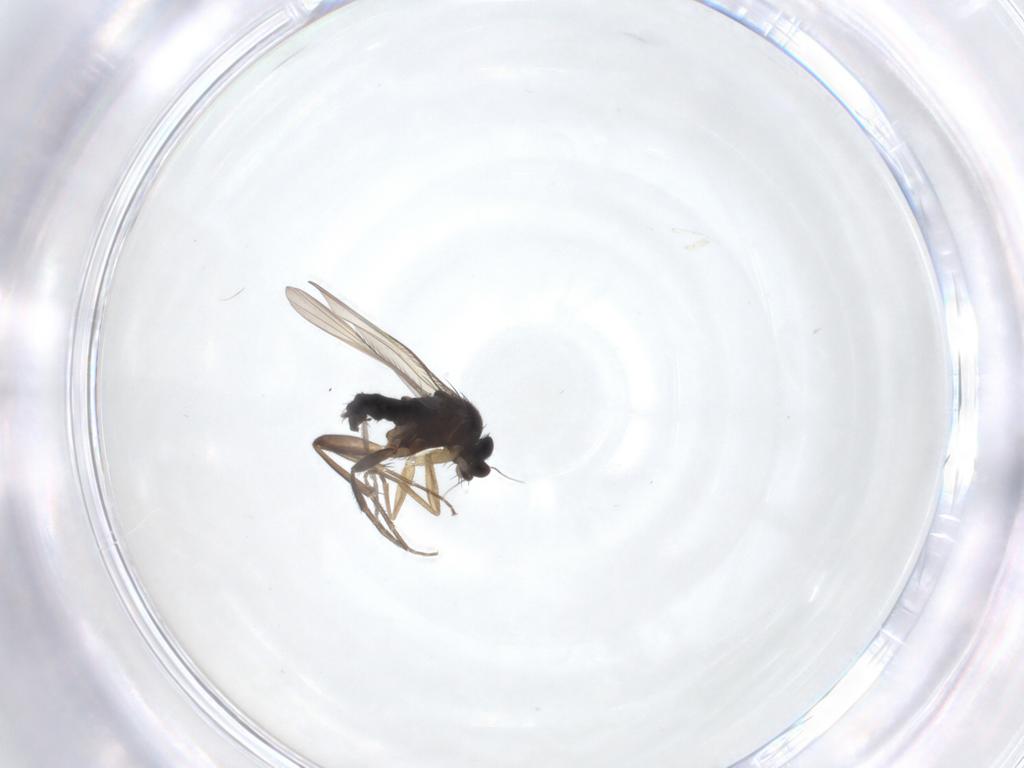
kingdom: Animalia
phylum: Arthropoda
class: Insecta
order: Diptera
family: Phoridae
